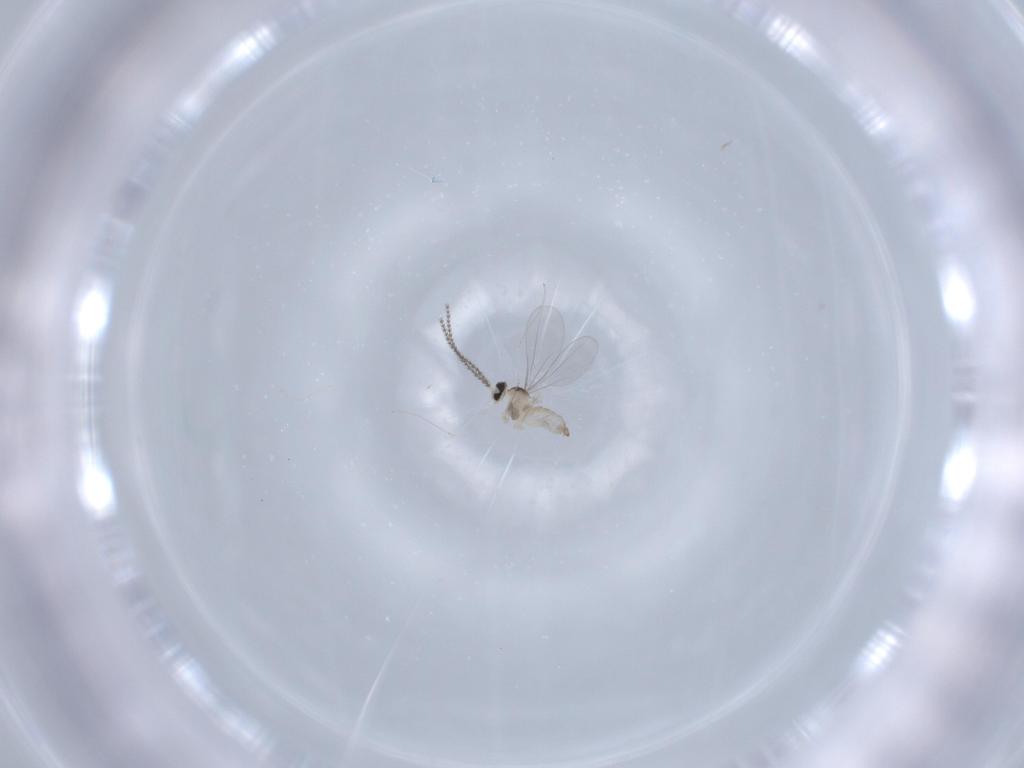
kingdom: Animalia
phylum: Arthropoda
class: Insecta
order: Diptera
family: Cecidomyiidae
